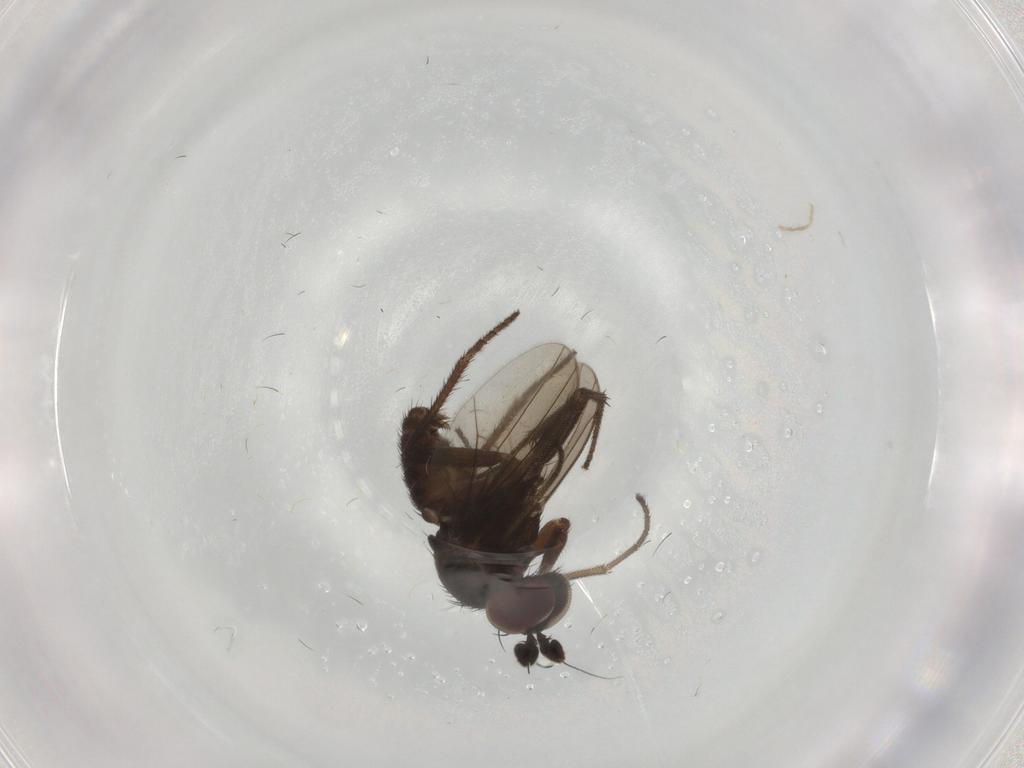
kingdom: Animalia
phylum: Arthropoda
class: Insecta
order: Diptera
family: Dolichopodidae
